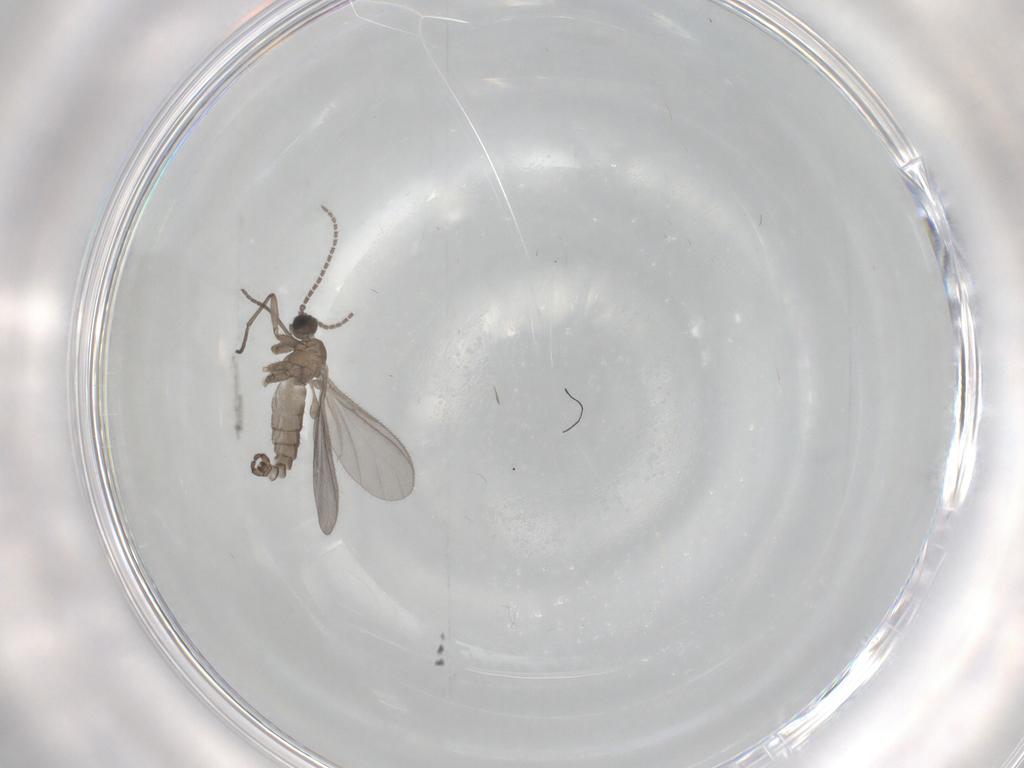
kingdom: Animalia
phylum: Arthropoda
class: Insecta
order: Diptera
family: Sciaridae
